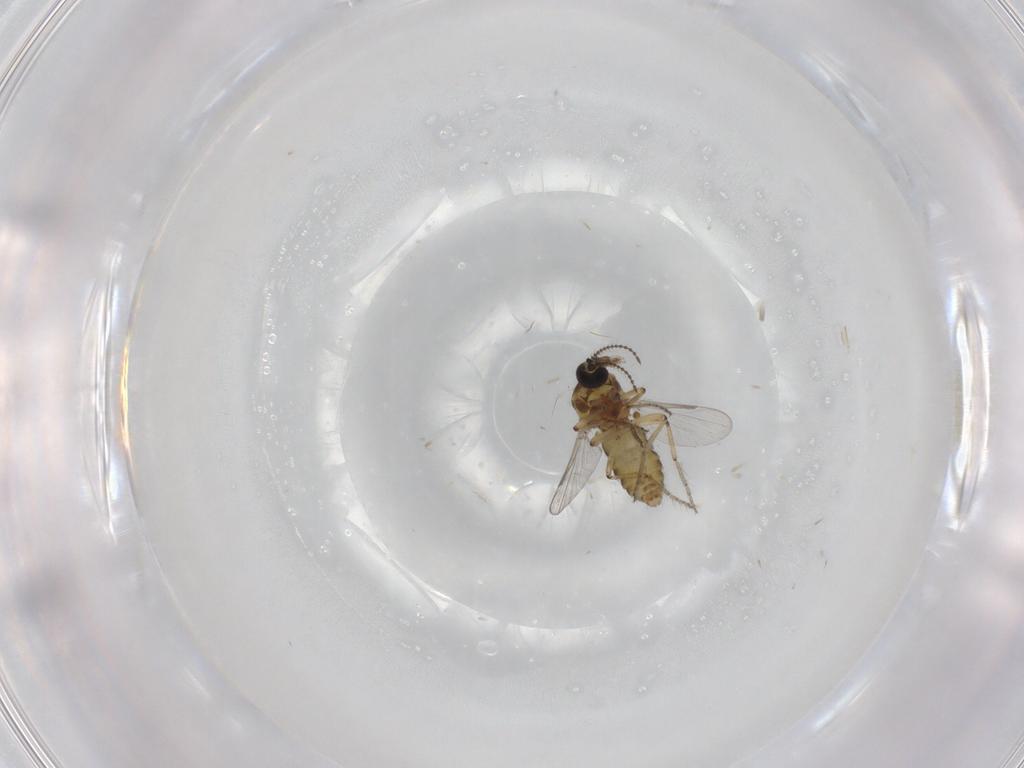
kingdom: Animalia
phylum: Arthropoda
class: Insecta
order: Diptera
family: Ceratopogonidae
